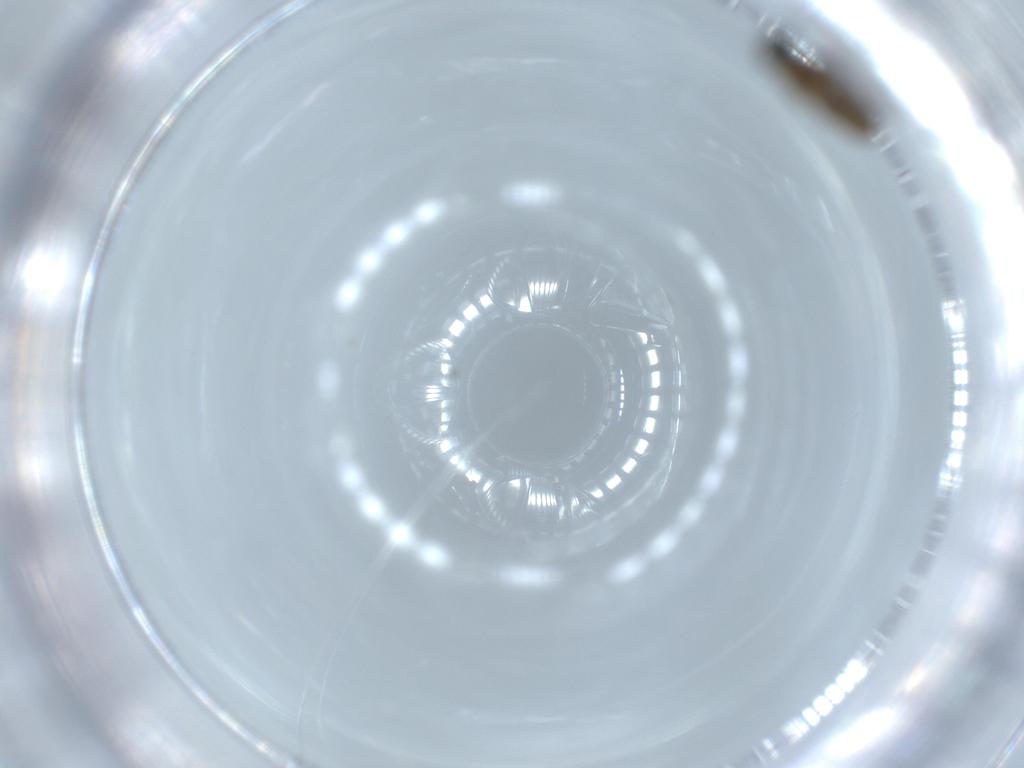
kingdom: Animalia
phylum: Arthropoda
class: Insecta
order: Diptera
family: Cecidomyiidae
